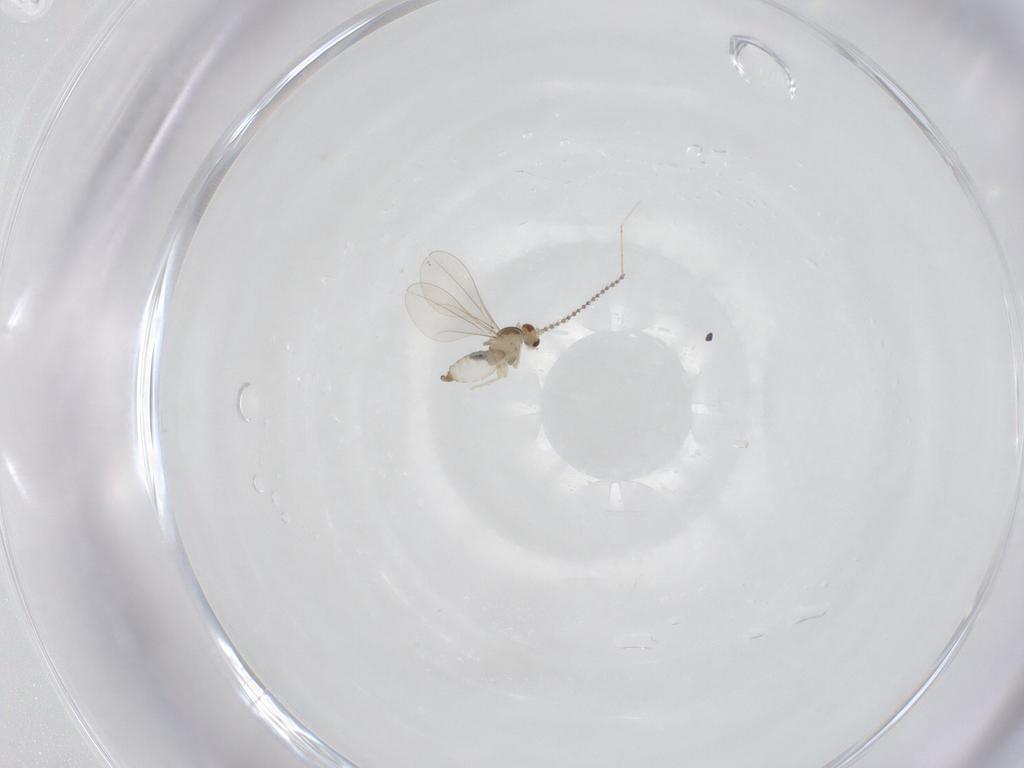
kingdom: Animalia
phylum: Arthropoda
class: Insecta
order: Diptera
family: Cecidomyiidae
